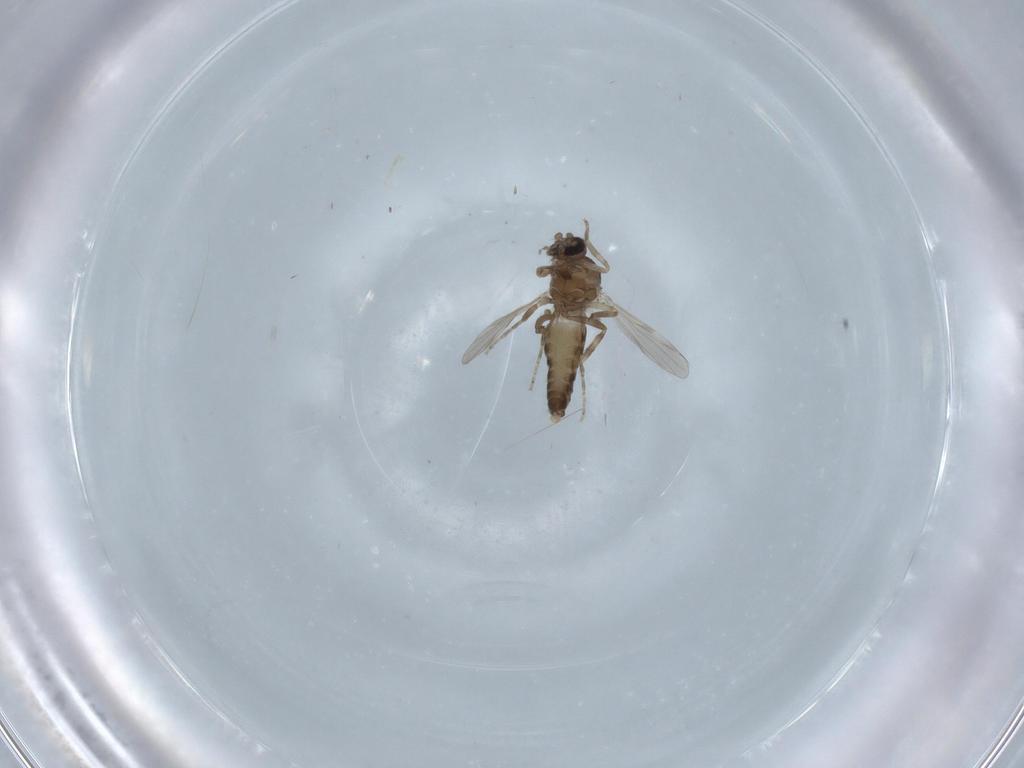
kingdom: Animalia
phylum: Arthropoda
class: Insecta
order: Diptera
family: Ceratopogonidae
